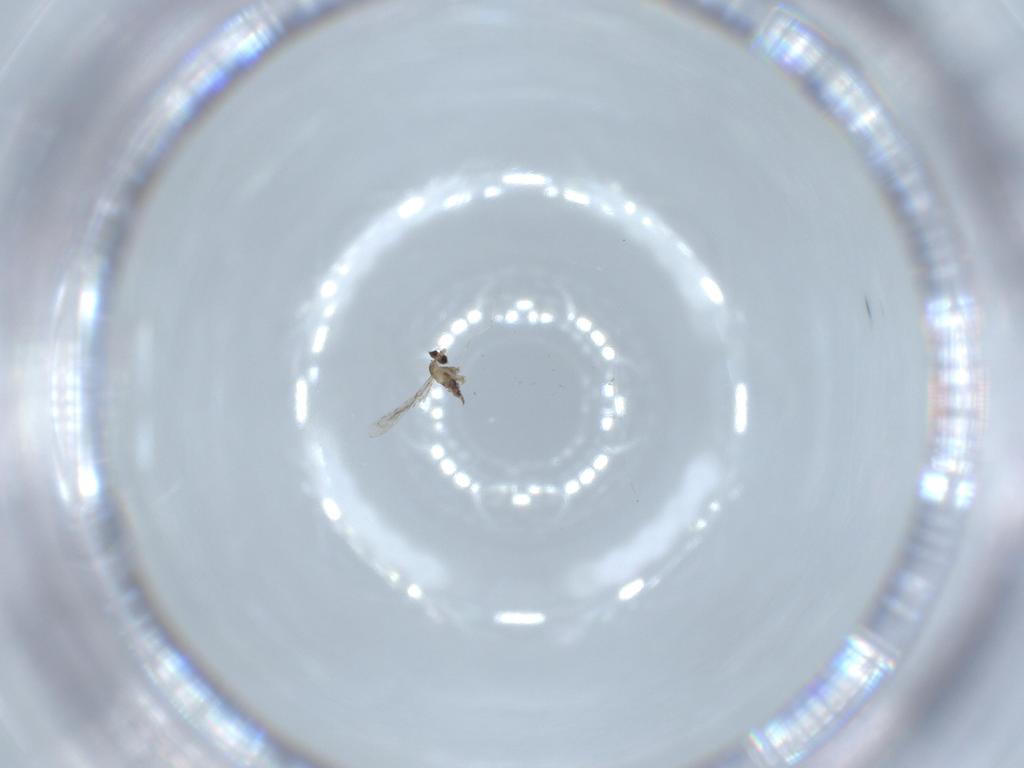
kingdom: Animalia
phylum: Arthropoda
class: Insecta
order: Diptera
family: Cecidomyiidae
